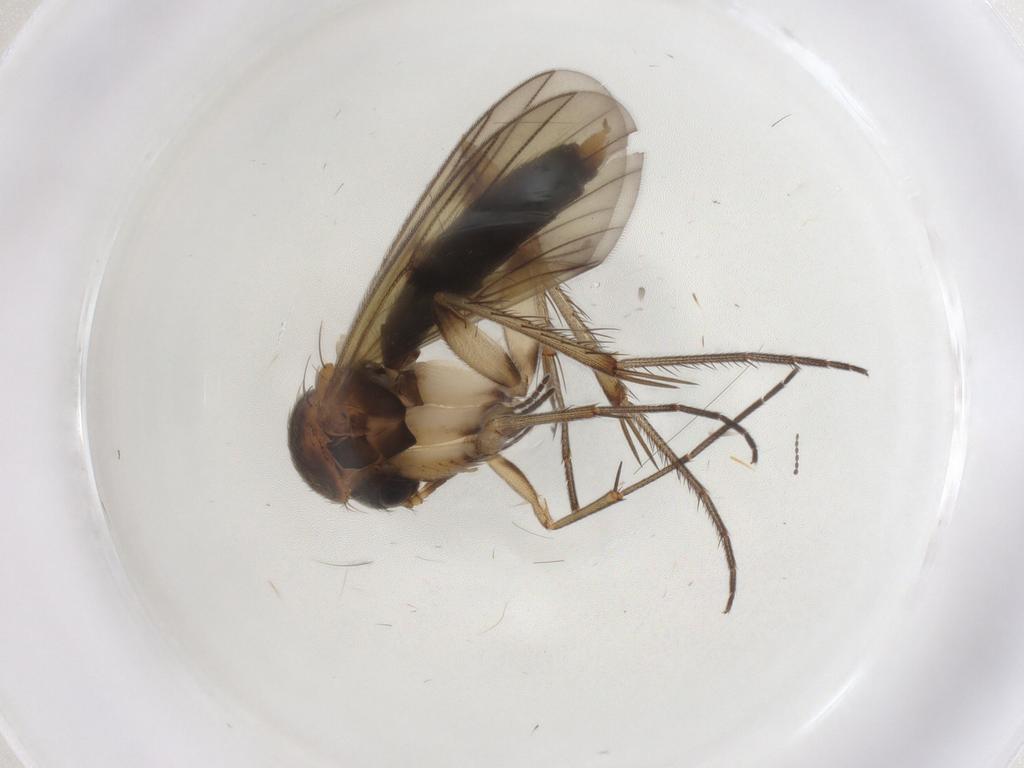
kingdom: Animalia
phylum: Arthropoda
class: Insecta
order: Diptera
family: Mycetophilidae
